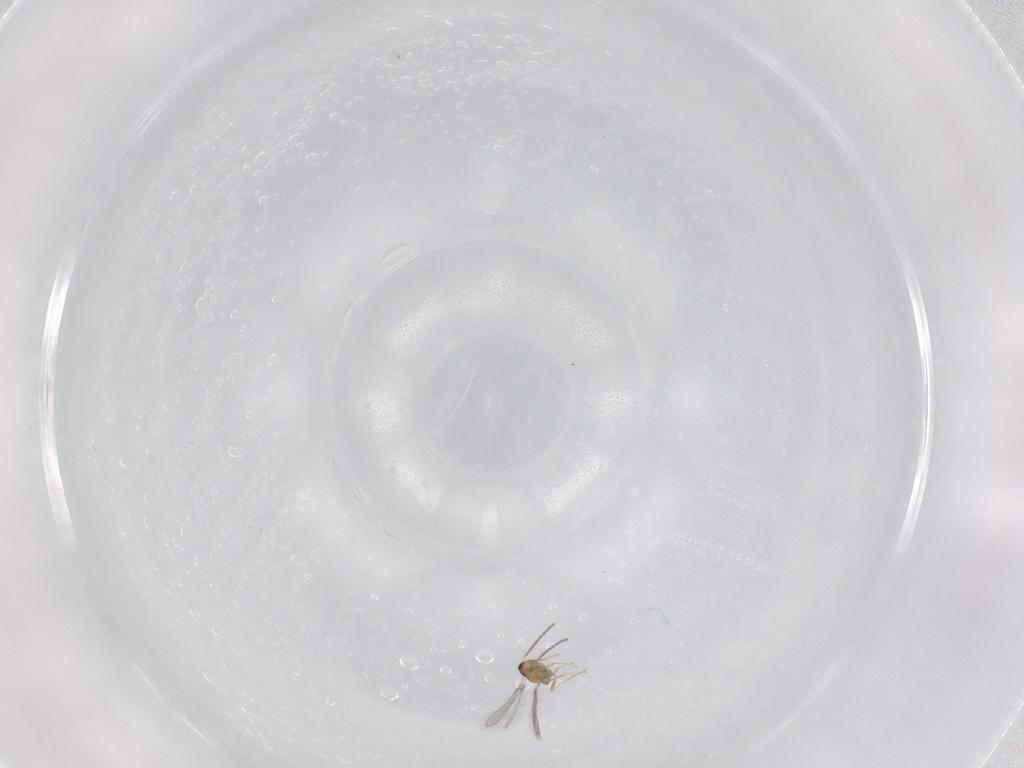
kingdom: Animalia
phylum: Arthropoda
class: Insecta
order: Hymenoptera
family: Mymaridae
